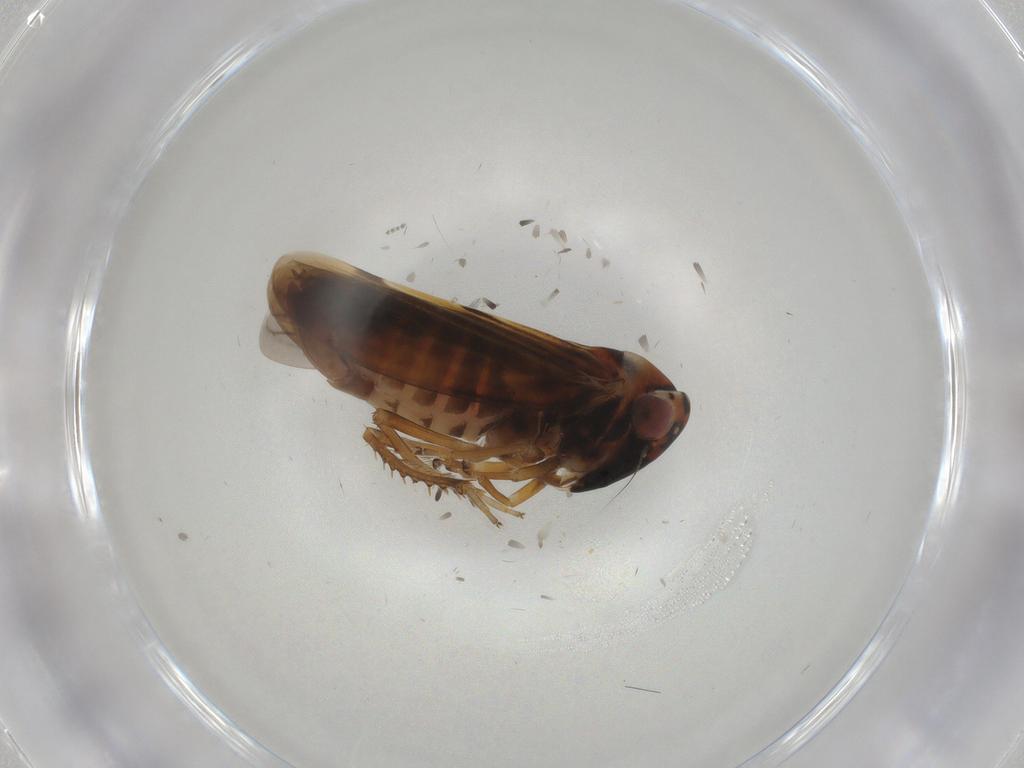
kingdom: Animalia
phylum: Arthropoda
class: Insecta
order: Hemiptera
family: Cicadellidae
